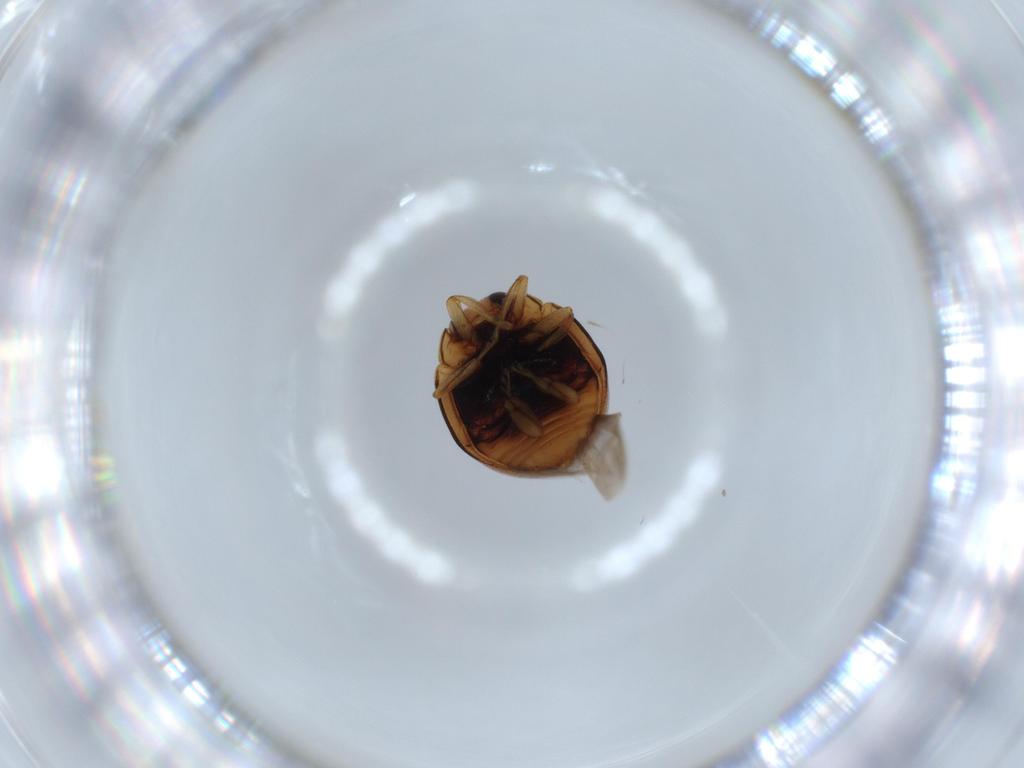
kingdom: Animalia
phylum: Arthropoda
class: Insecta
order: Coleoptera
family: Coccinellidae
